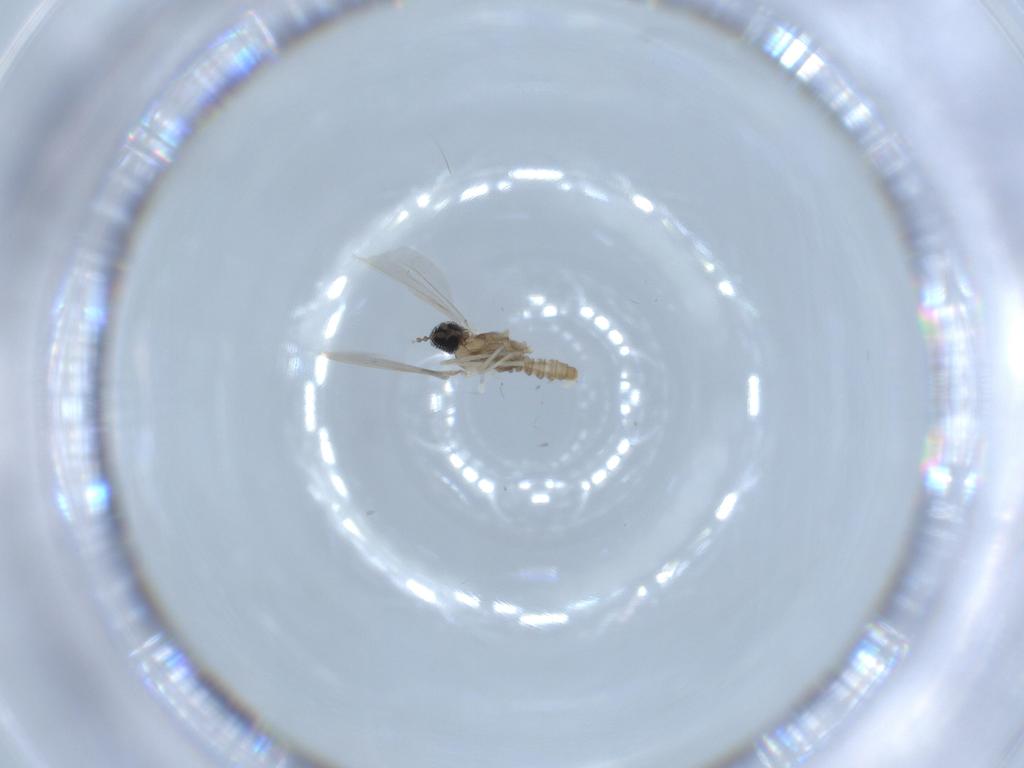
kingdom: Animalia
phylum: Arthropoda
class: Insecta
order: Diptera
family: Cecidomyiidae
